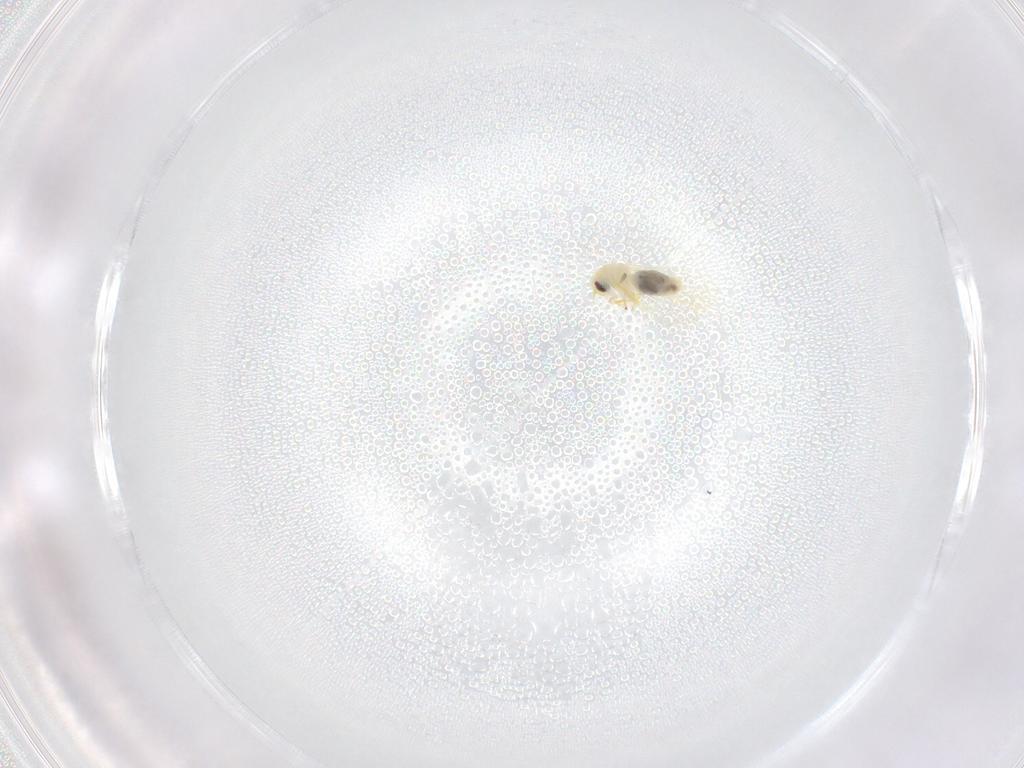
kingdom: Animalia
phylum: Arthropoda
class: Insecta
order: Hemiptera
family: Aleyrodidae
